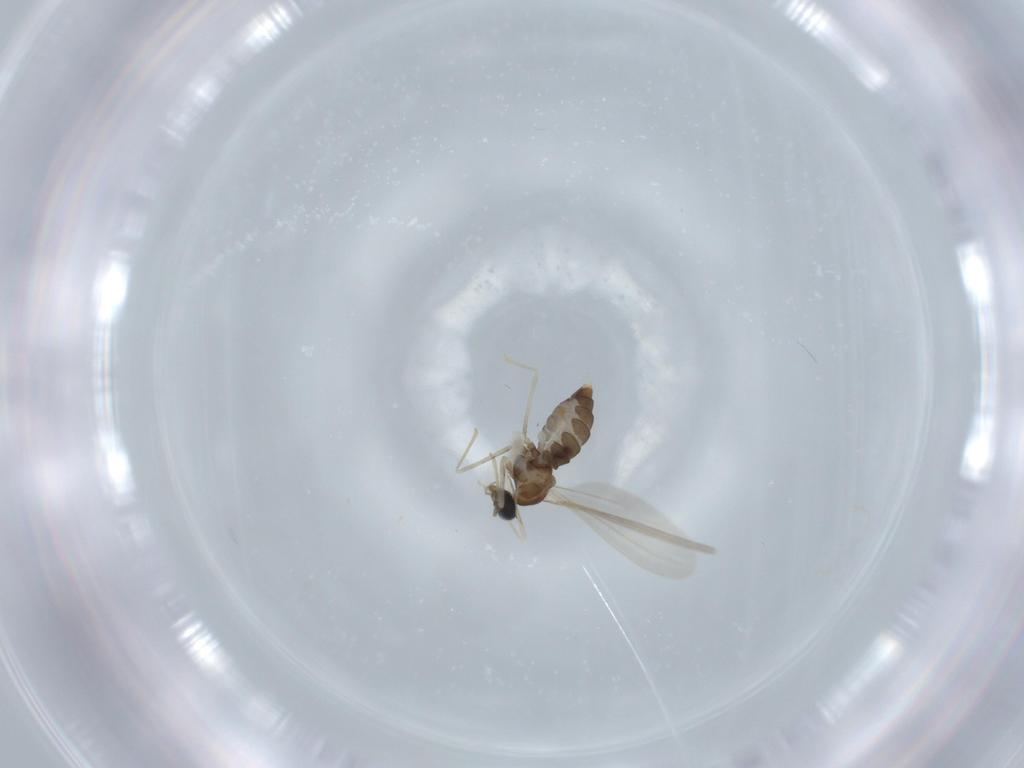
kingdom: Animalia
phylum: Arthropoda
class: Insecta
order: Diptera
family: Cecidomyiidae
